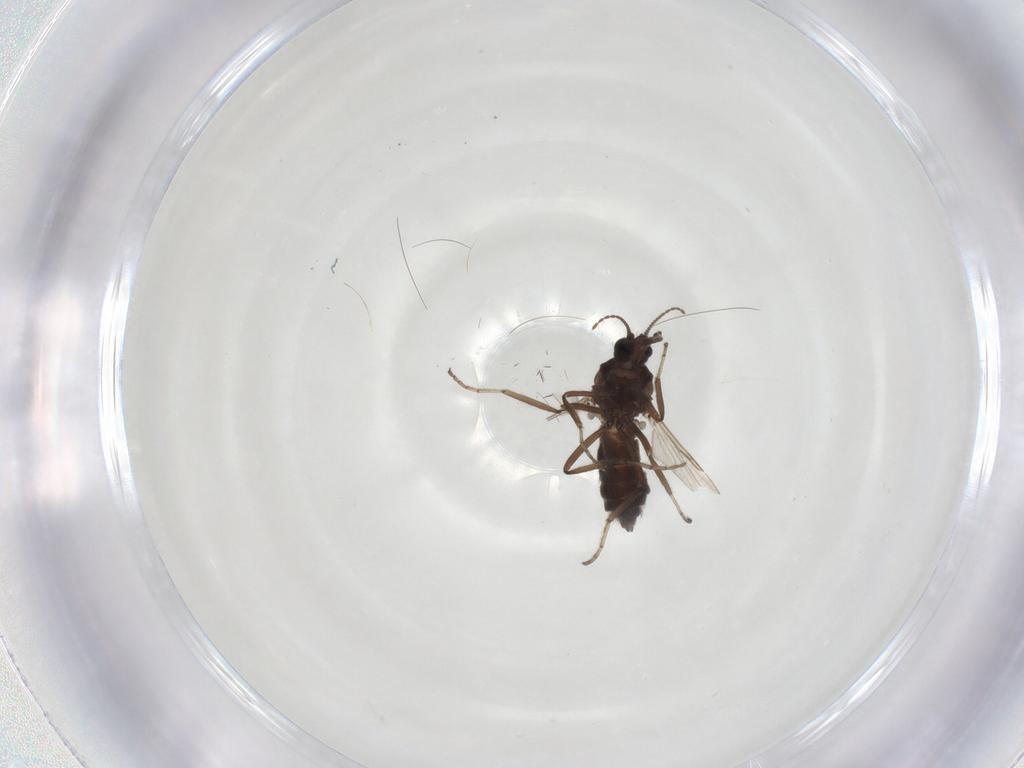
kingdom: Animalia
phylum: Arthropoda
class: Insecta
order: Diptera
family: Ceratopogonidae
